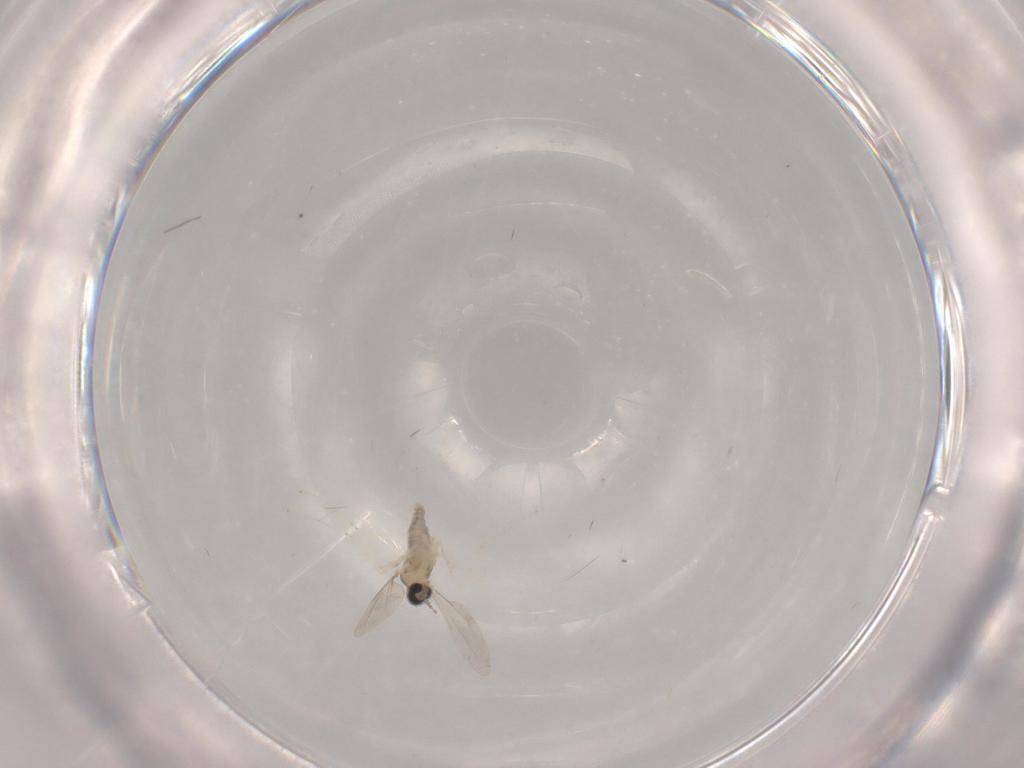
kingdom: Animalia
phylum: Arthropoda
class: Insecta
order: Diptera
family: Cecidomyiidae
